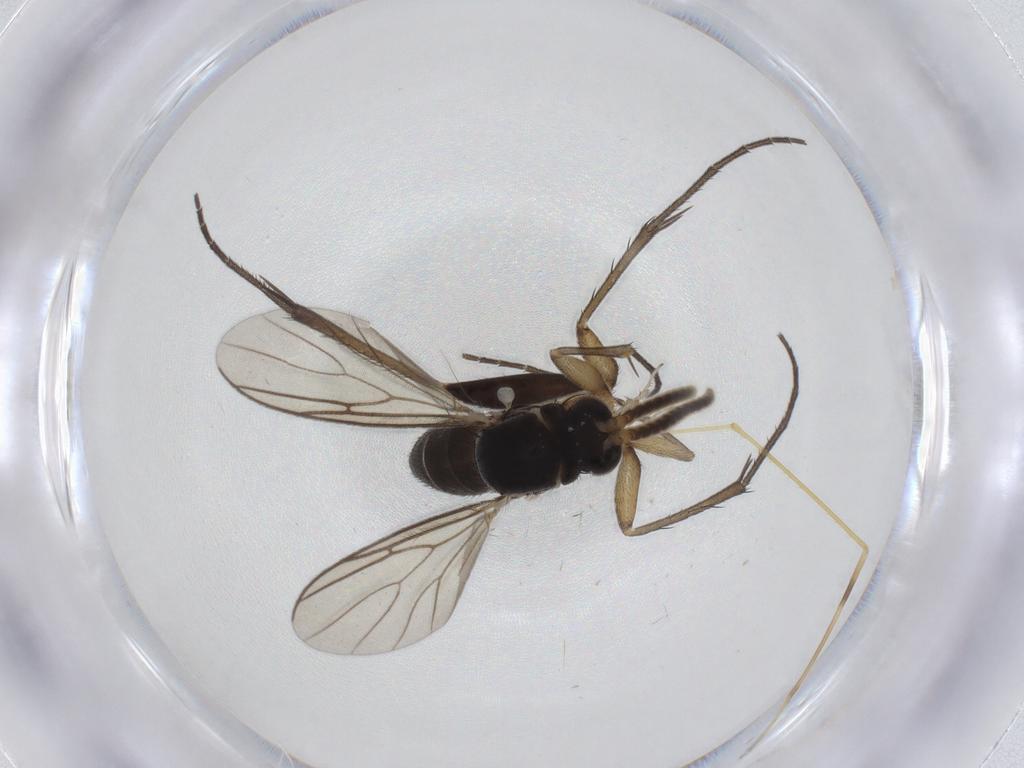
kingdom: Animalia
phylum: Arthropoda
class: Insecta
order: Diptera
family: Mycetophilidae
